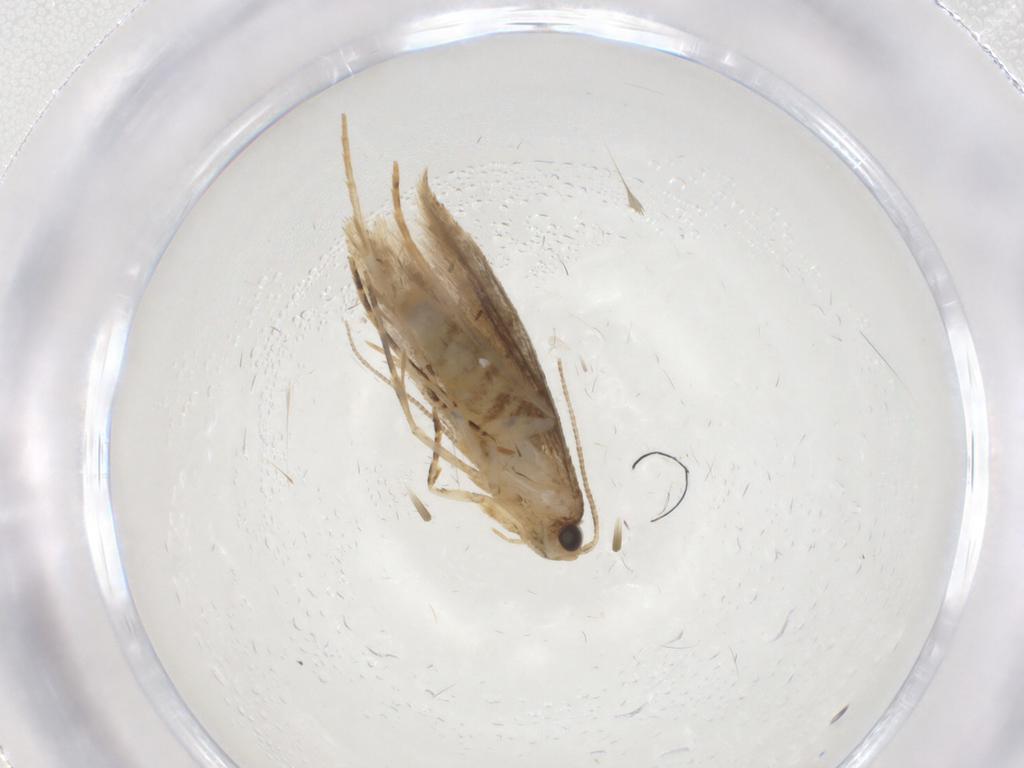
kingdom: Animalia
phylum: Arthropoda
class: Insecta
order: Lepidoptera
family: Tineidae
